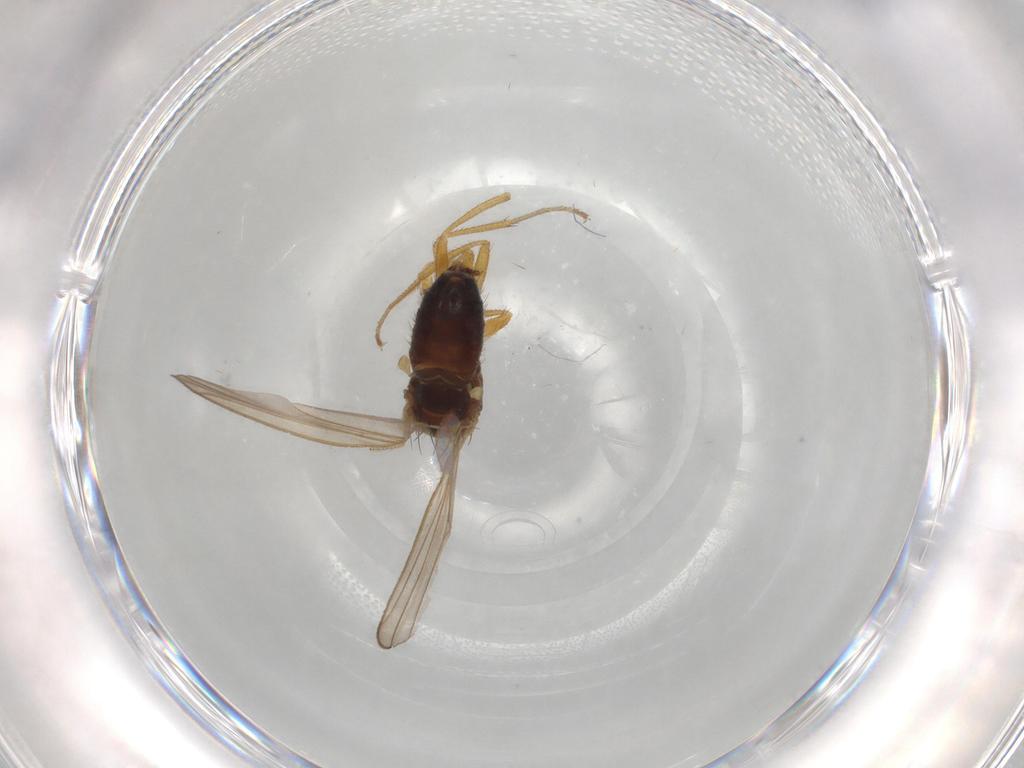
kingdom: Animalia
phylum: Arthropoda
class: Insecta
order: Diptera
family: Drosophilidae
